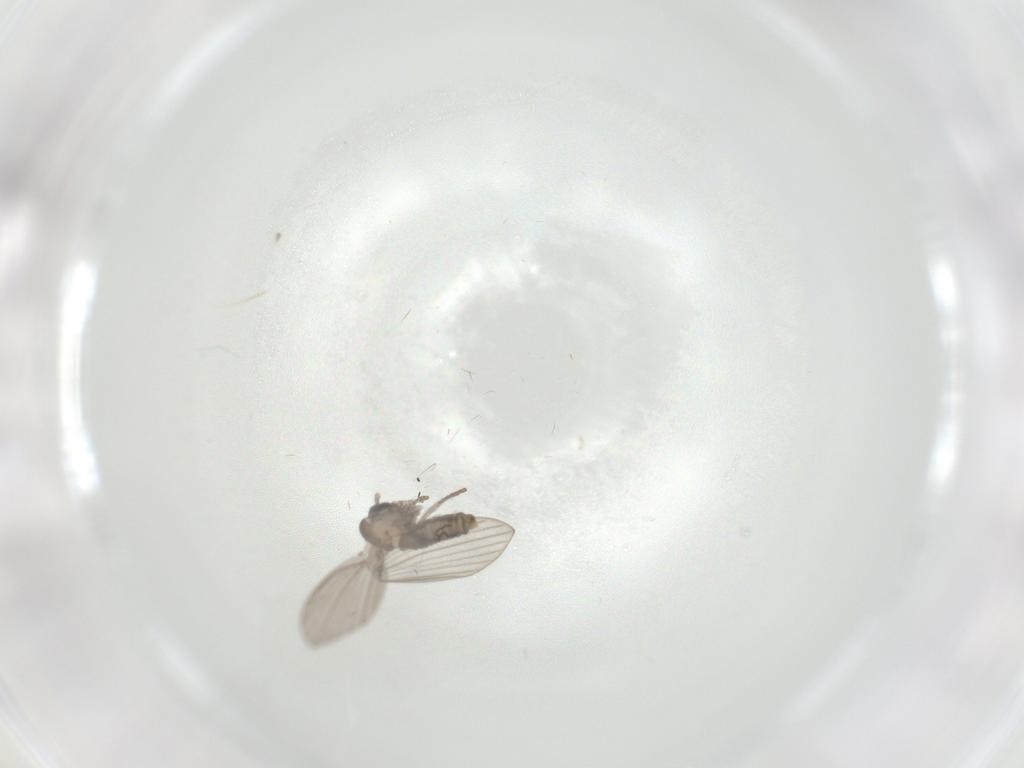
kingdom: Animalia
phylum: Arthropoda
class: Insecta
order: Diptera
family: Psychodidae
